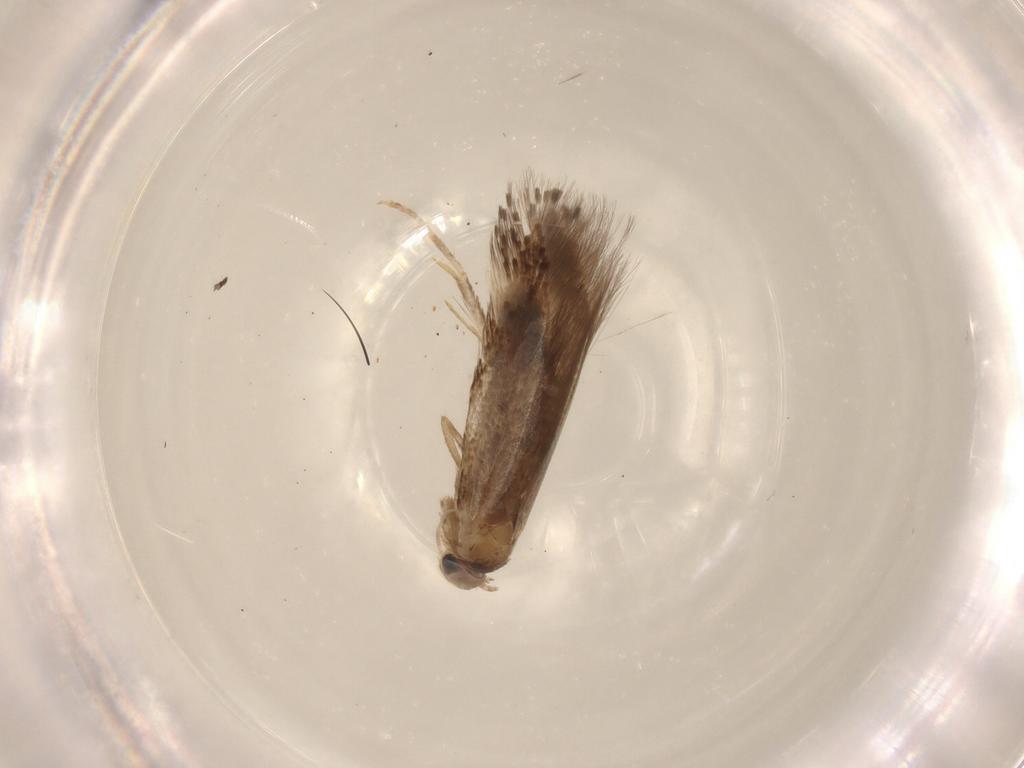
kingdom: Animalia
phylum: Arthropoda
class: Insecta
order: Lepidoptera
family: Elachistidae
